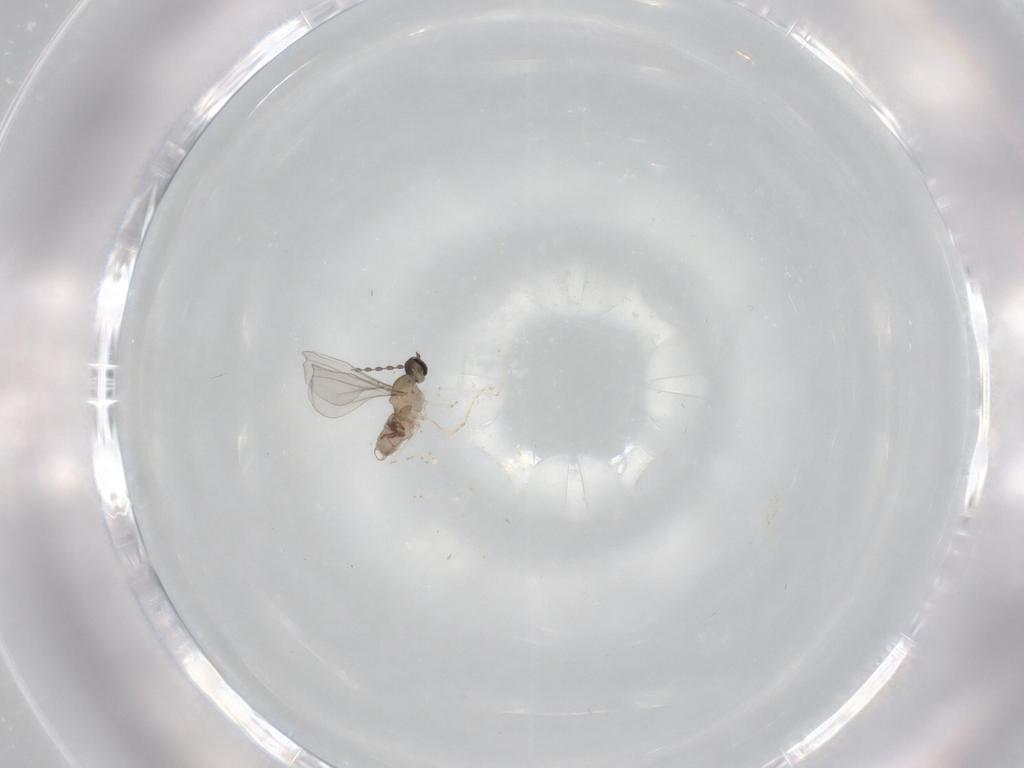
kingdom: Animalia
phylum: Arthropoda
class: Insecta
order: Diptera
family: Cecidomyiidae
